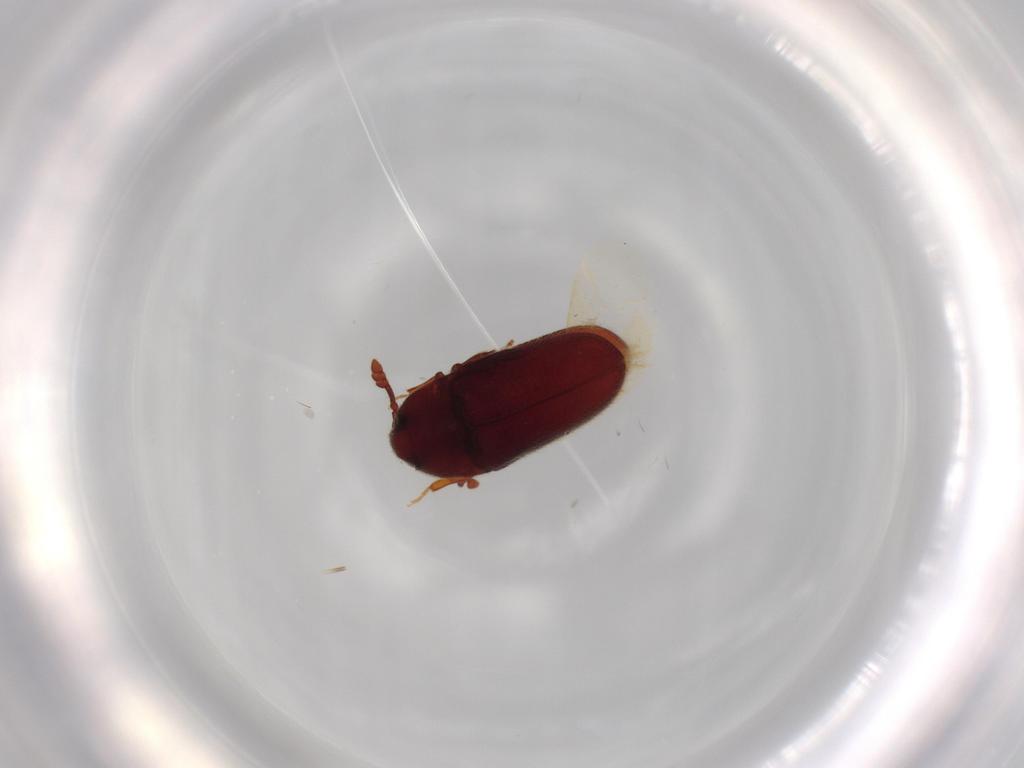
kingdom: Animalia
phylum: Arthropoda
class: Insecta
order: Coleoptera
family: Throscidae
